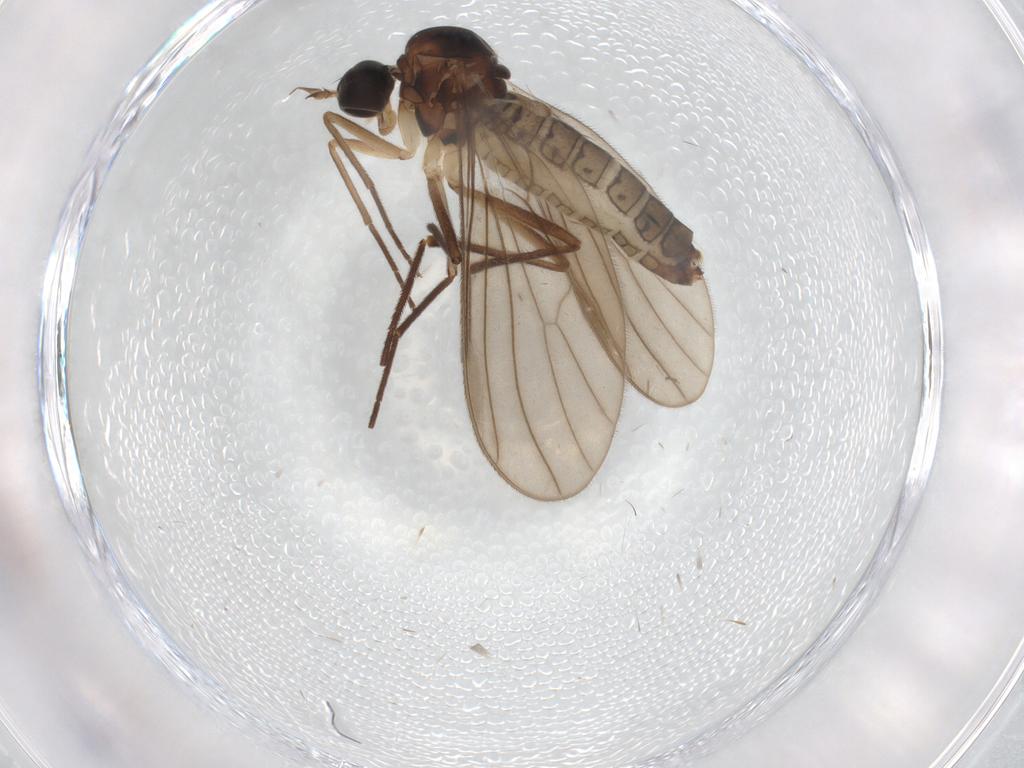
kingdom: Animalia
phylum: Arthropoda
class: Insecta
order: Diptera
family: Empididae
